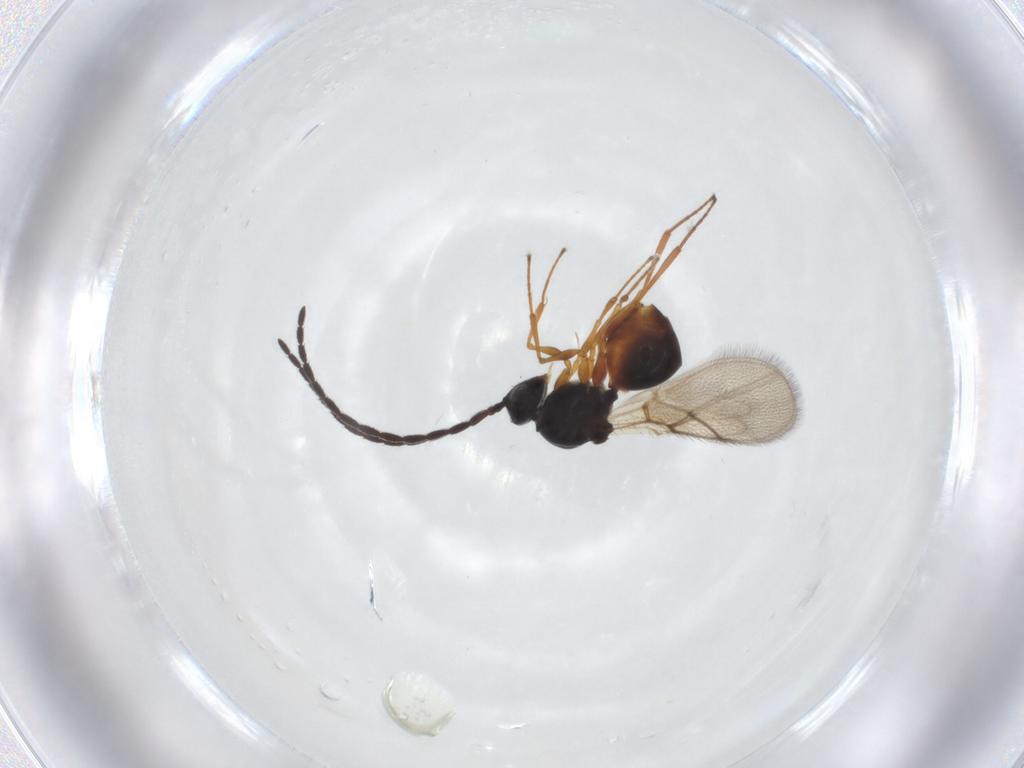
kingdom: Animalia
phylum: Arthropoda
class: Insecta
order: Hymenoptera
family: Figitidae
